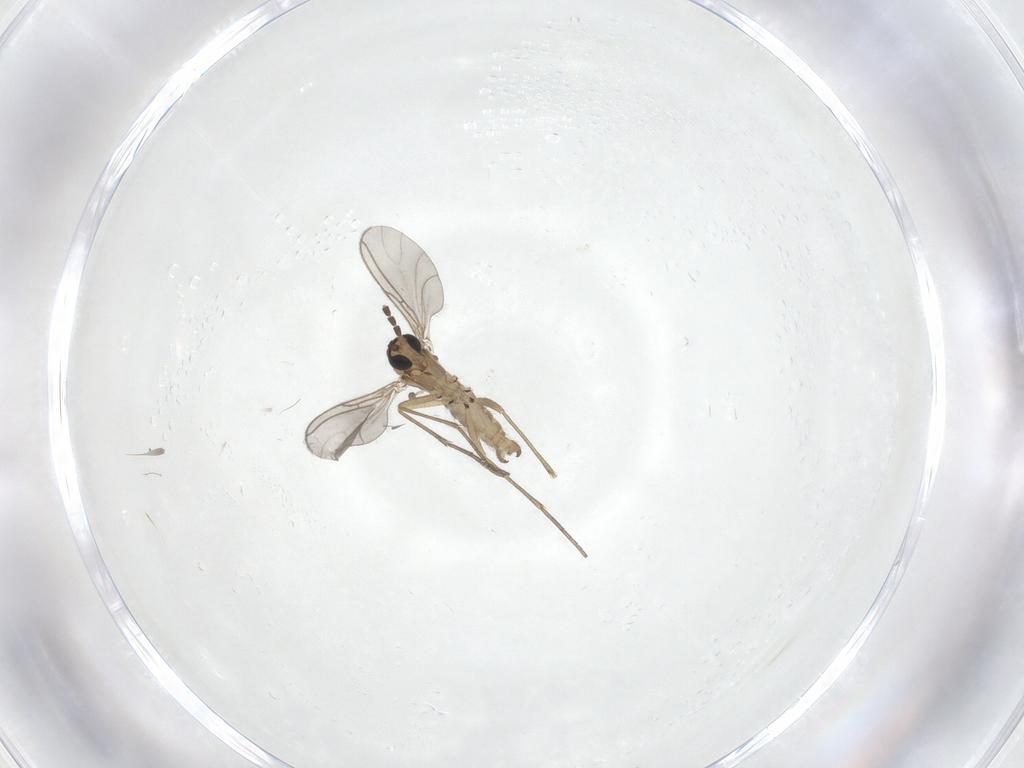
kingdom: Animalia
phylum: Arthropoda
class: Insecta
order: Diptera
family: Sciaridae
